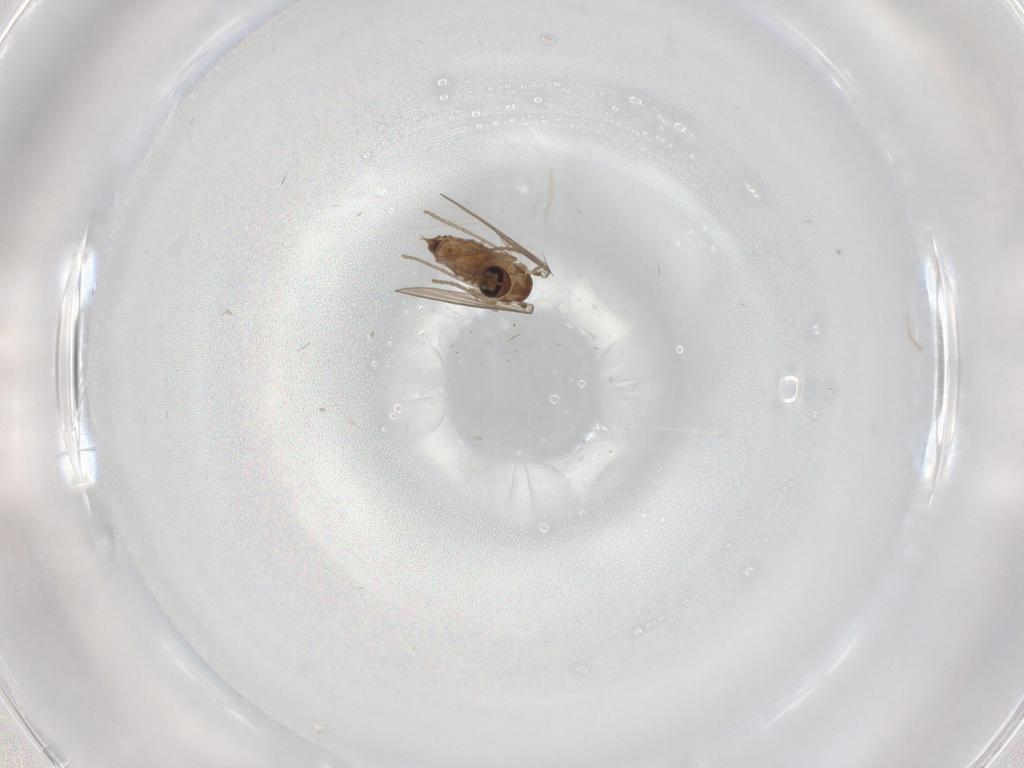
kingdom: Animalia
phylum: Arthropoda
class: Insecta
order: Diptera
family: Cecidomyiidae
